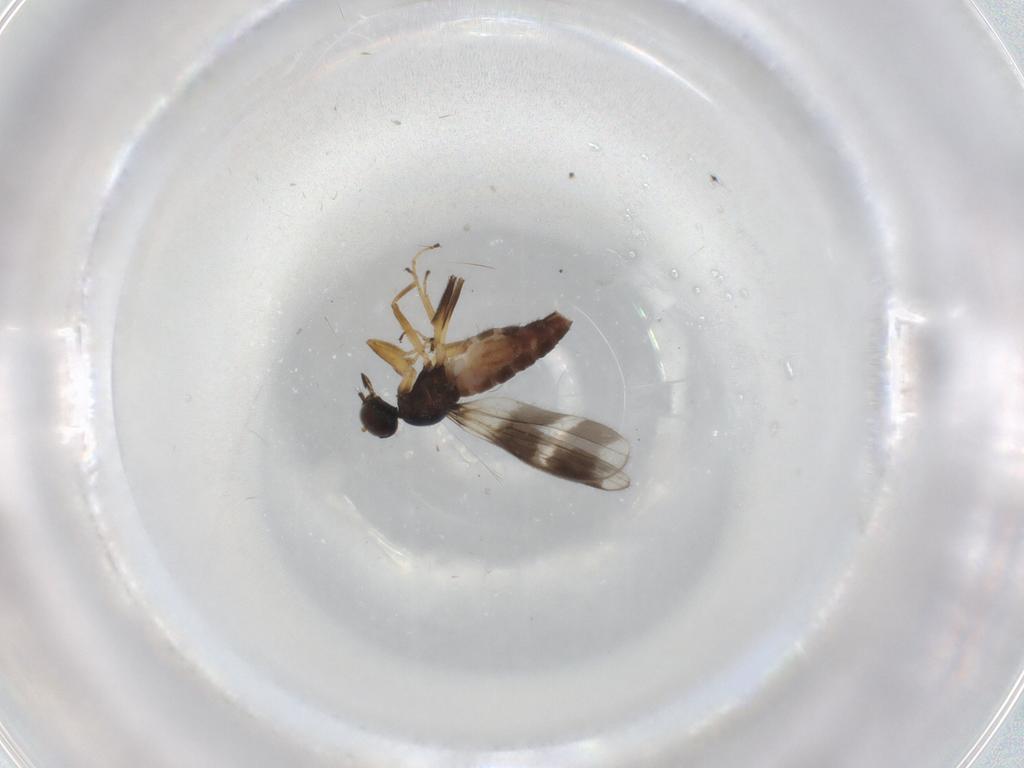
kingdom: Animalia
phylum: Arthropoda
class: Insecta
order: Diptera
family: Hybotidae
